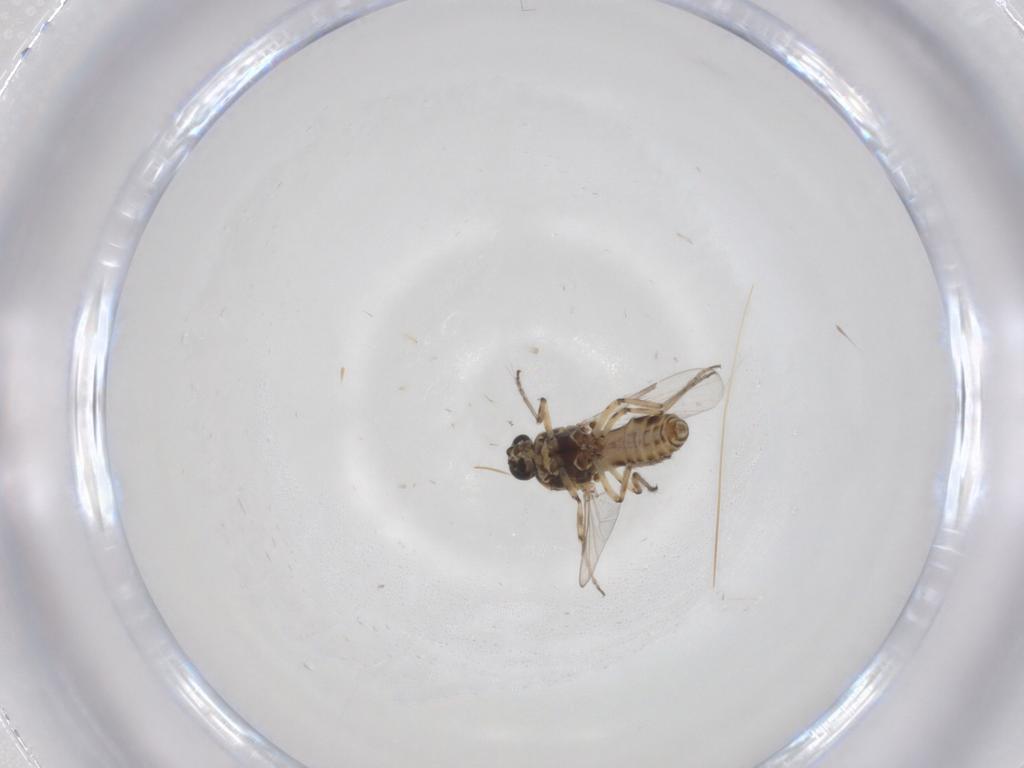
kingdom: Animalia
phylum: Arthropoda
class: Insecta
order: Diptera
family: Ceratopogonidae
